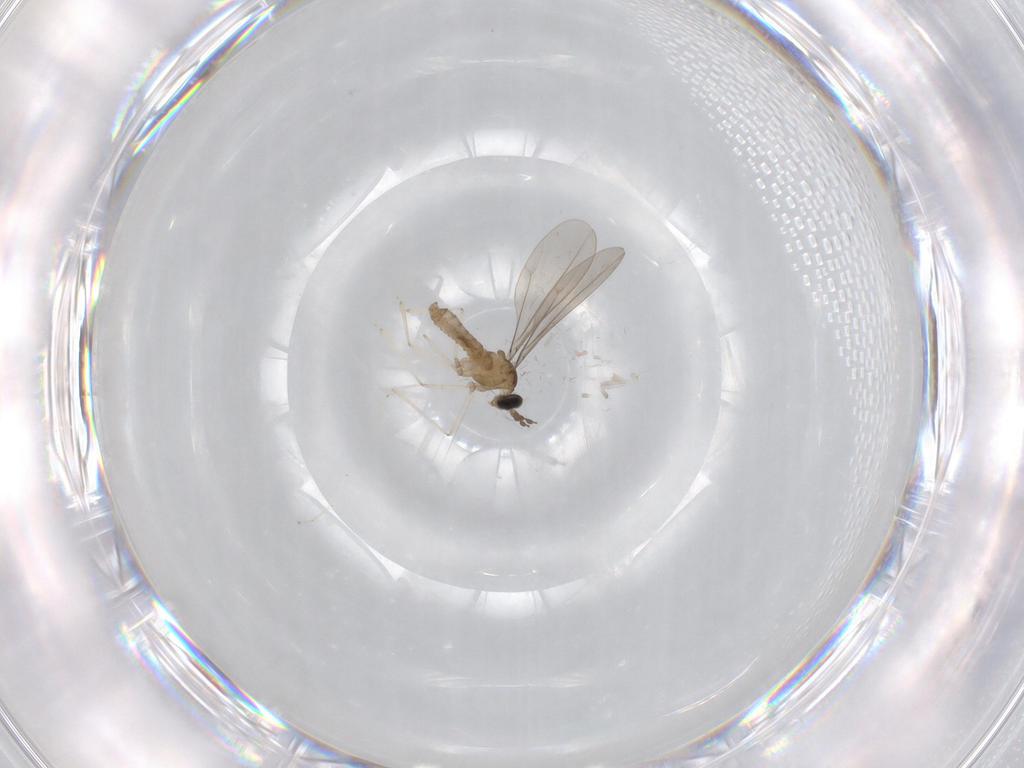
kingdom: Animalia
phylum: Arthropoda
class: Insecta
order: Diptera
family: Cecidomyiidae
